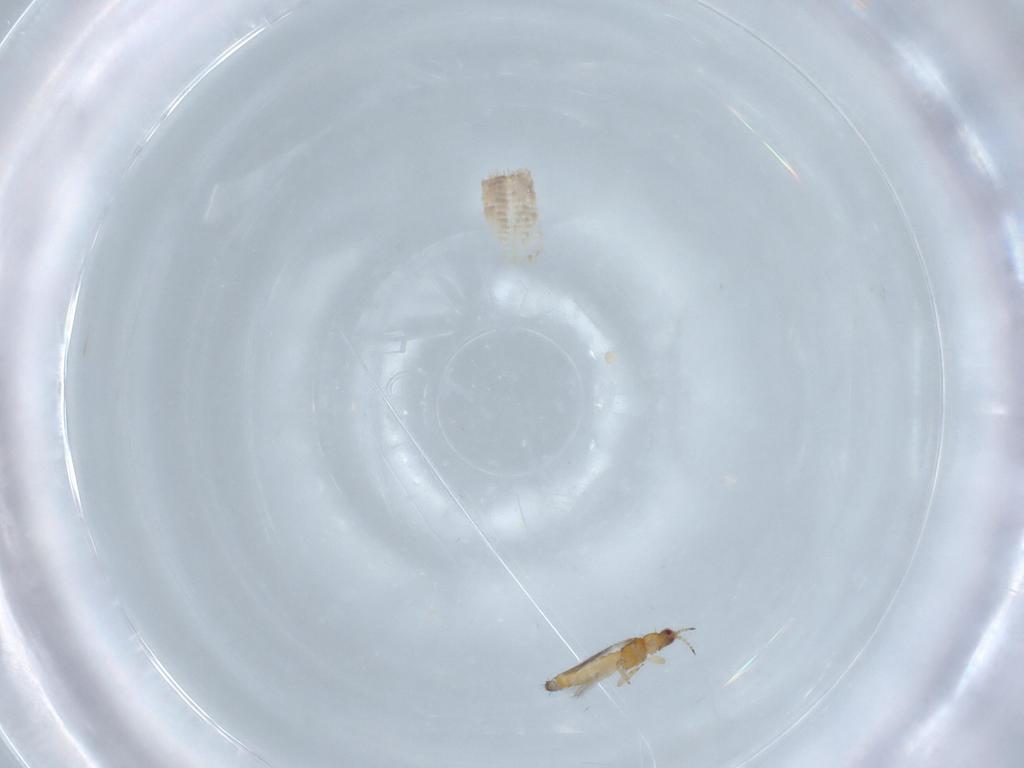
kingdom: Animalia
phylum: Arthropoda
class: Insecta
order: Thysanoptera
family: Thripidae
